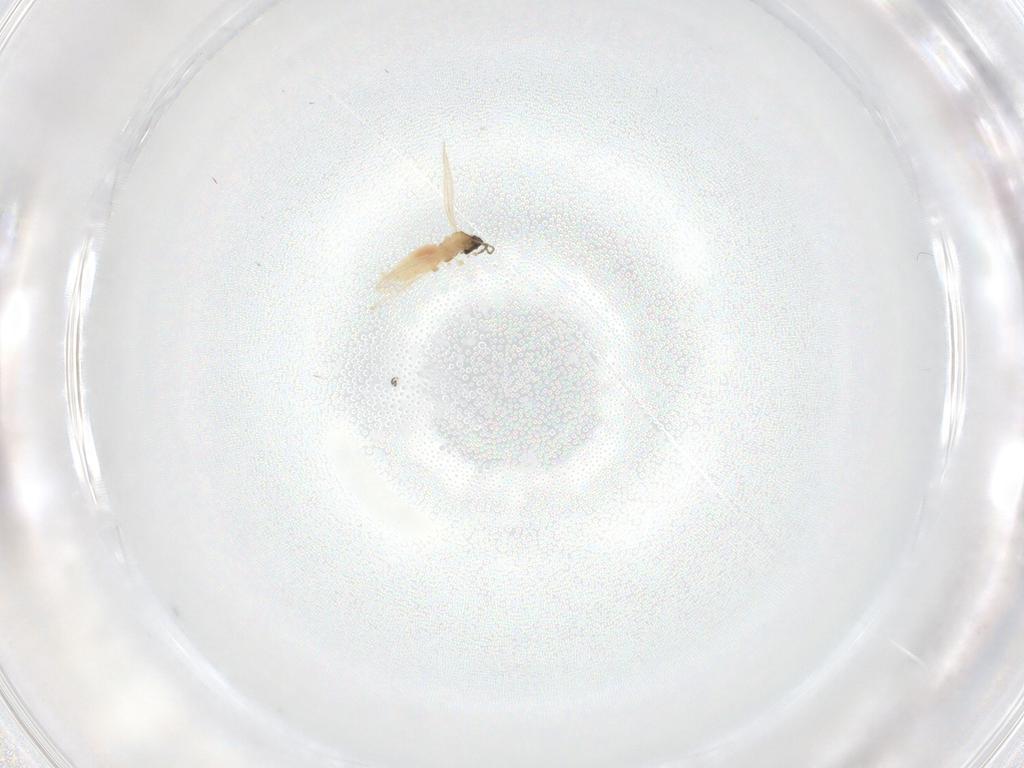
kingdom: Animalia
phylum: Arthropoda
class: Insecta
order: Diptera
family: Cecidomyiidae
